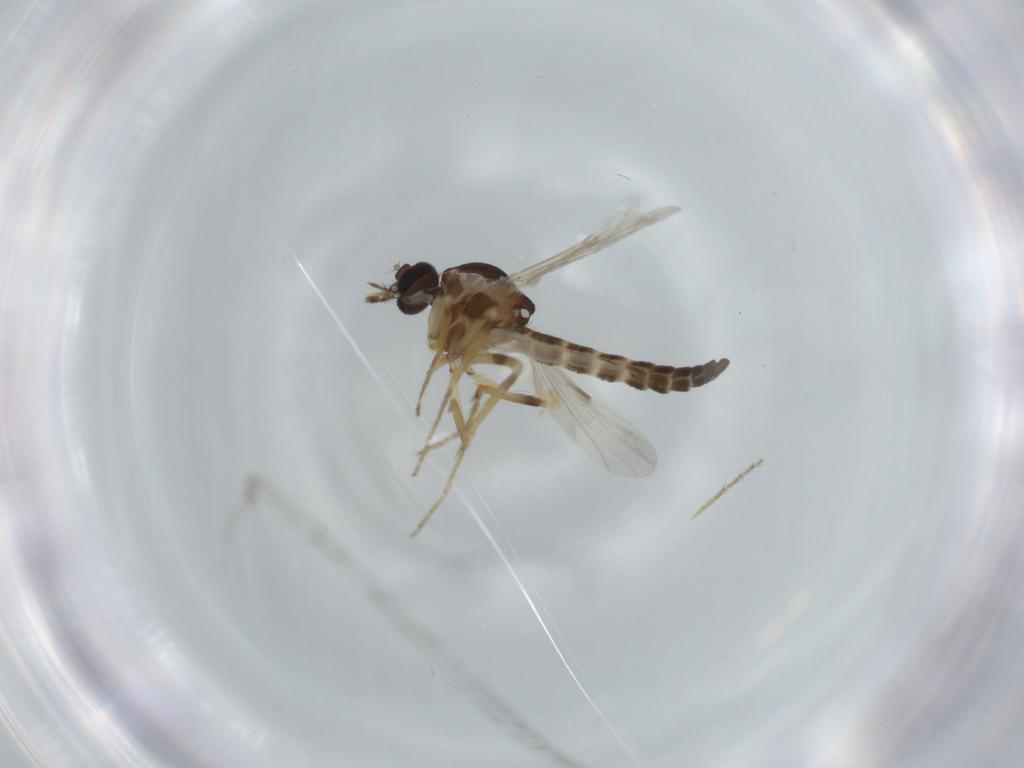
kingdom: Animalia
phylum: Arthropoda
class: Insecta
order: Diptera
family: Ceratopogonidae
